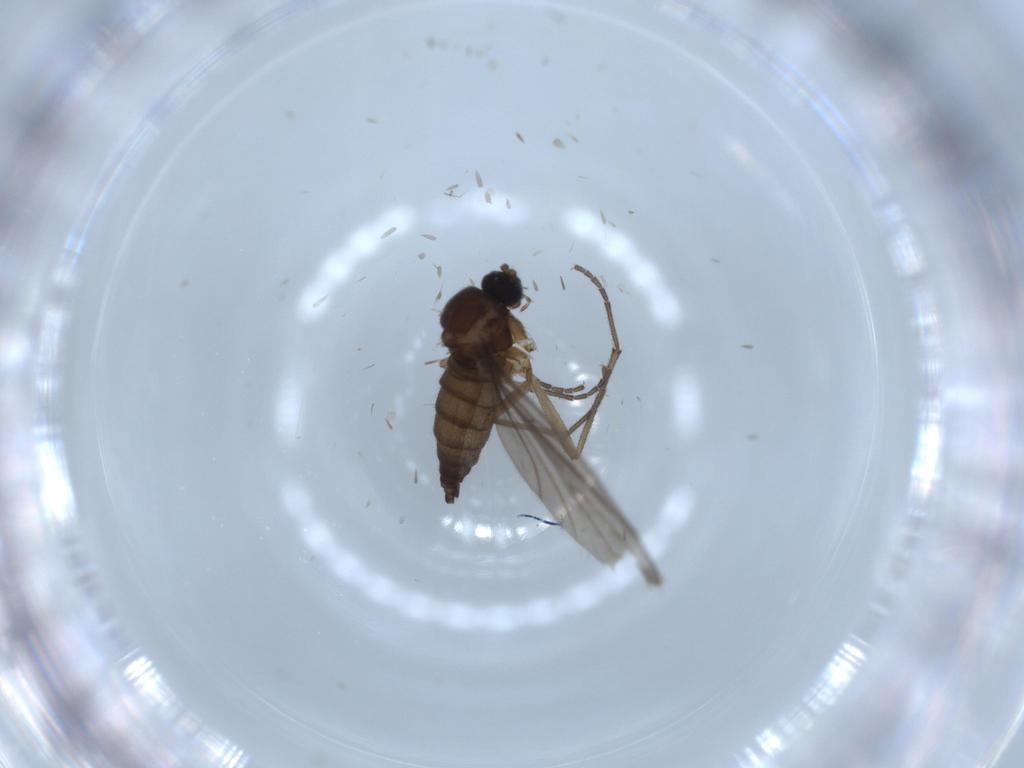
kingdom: Animalia
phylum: Arthropoda
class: Insecta
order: Diptera
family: Sciaridae
